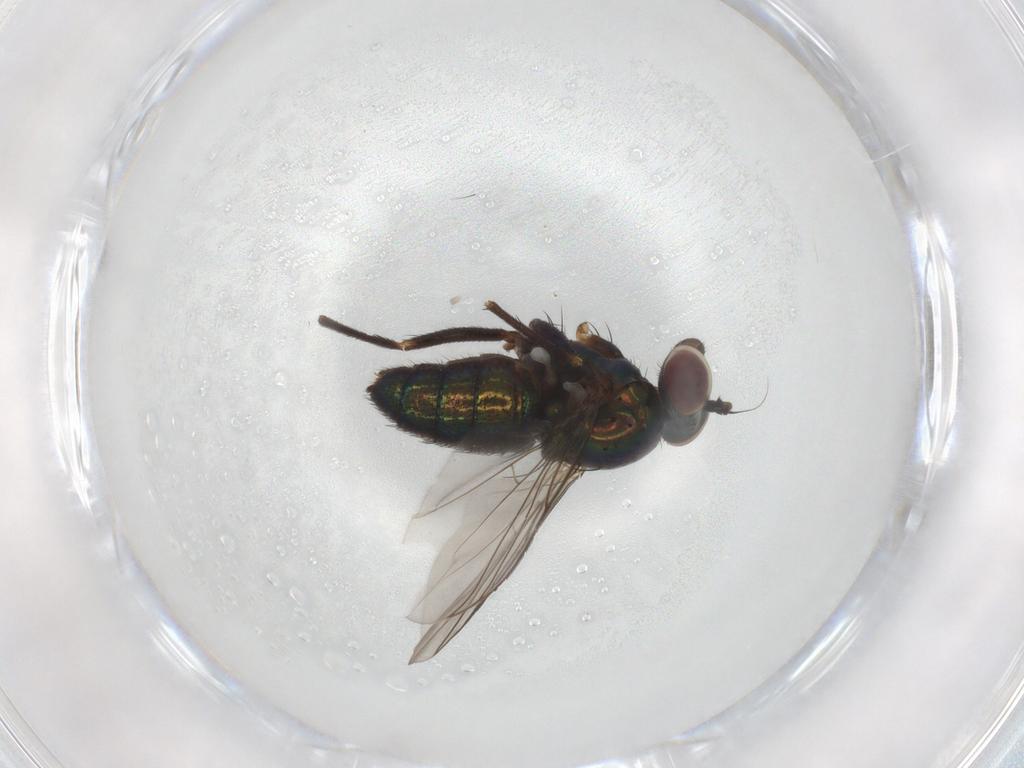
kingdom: Animalia
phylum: Arthropoda
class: Insecta
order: Diptera
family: Dolichopodidae
